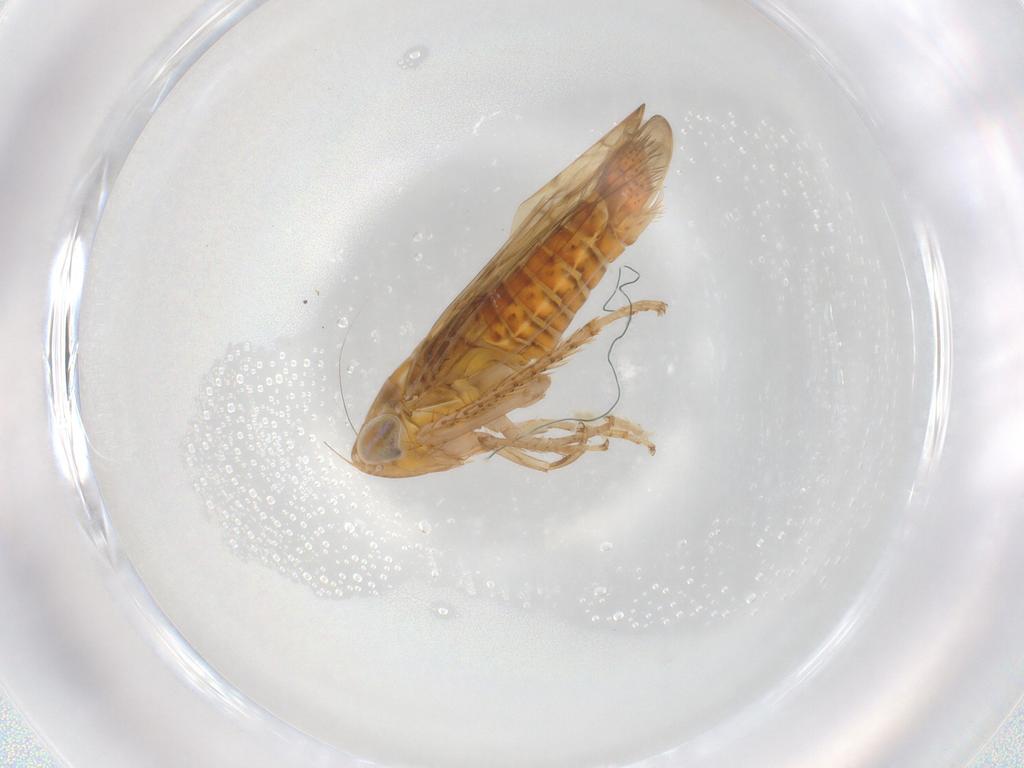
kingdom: Animalia
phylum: Arthropoda
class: Insecta
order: Hemiptera
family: Cicadellidae
